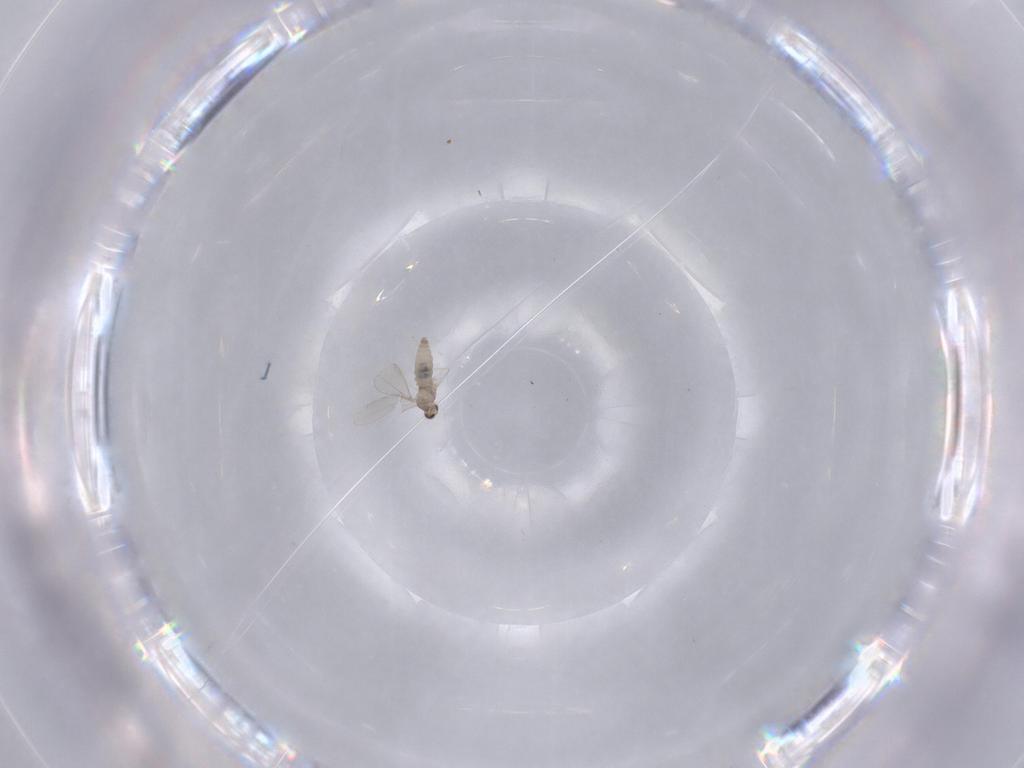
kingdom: Animalia
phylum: Arthropoda
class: Insecta
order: Diptera
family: Cecidomyiidae
